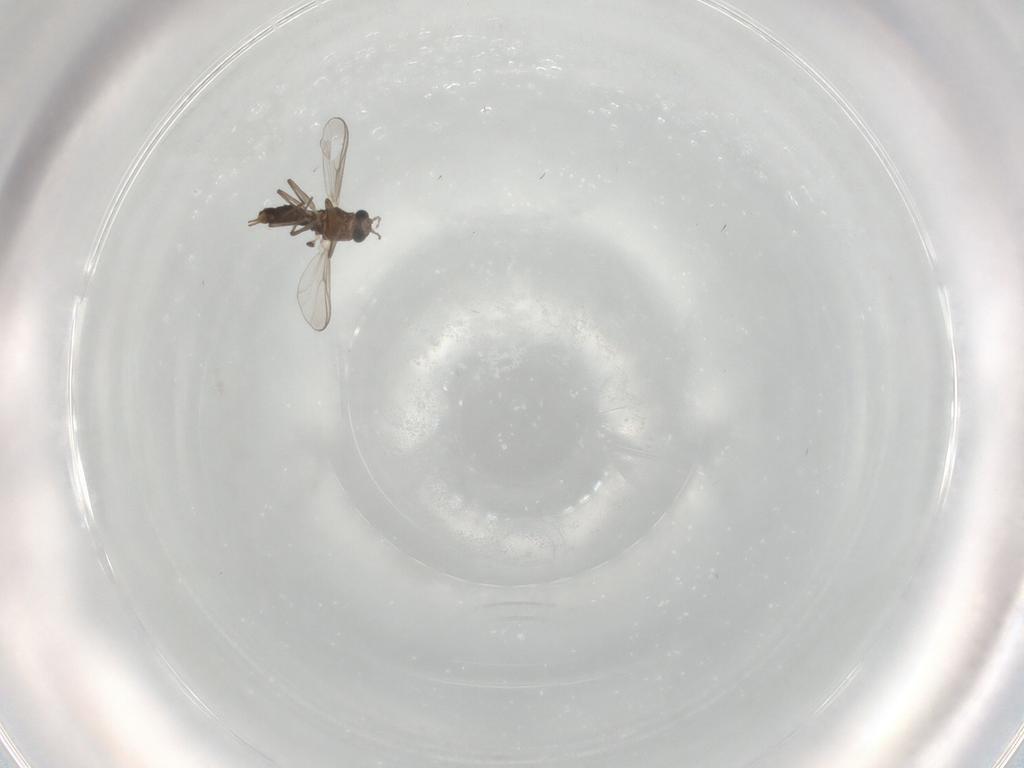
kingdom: Animalia
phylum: Arthropoda
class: Insecta
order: Diptera
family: Chironomidae
